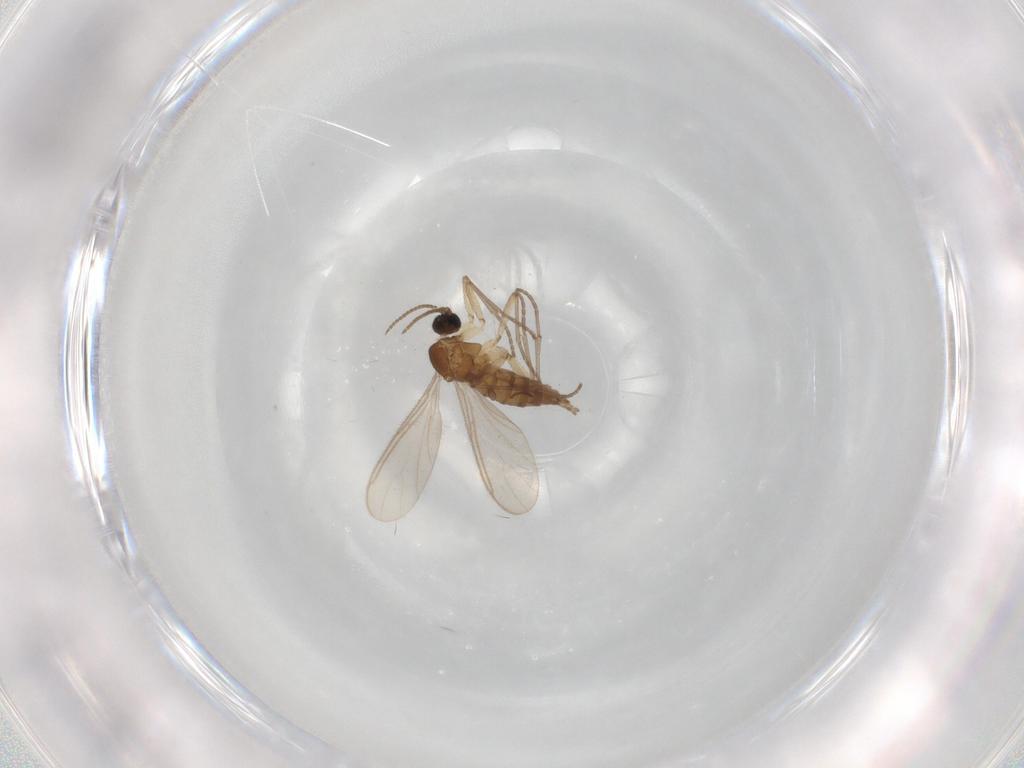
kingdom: Animalia
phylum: Arthropoda
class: Insecta
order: Diptera
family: Sciaridae
